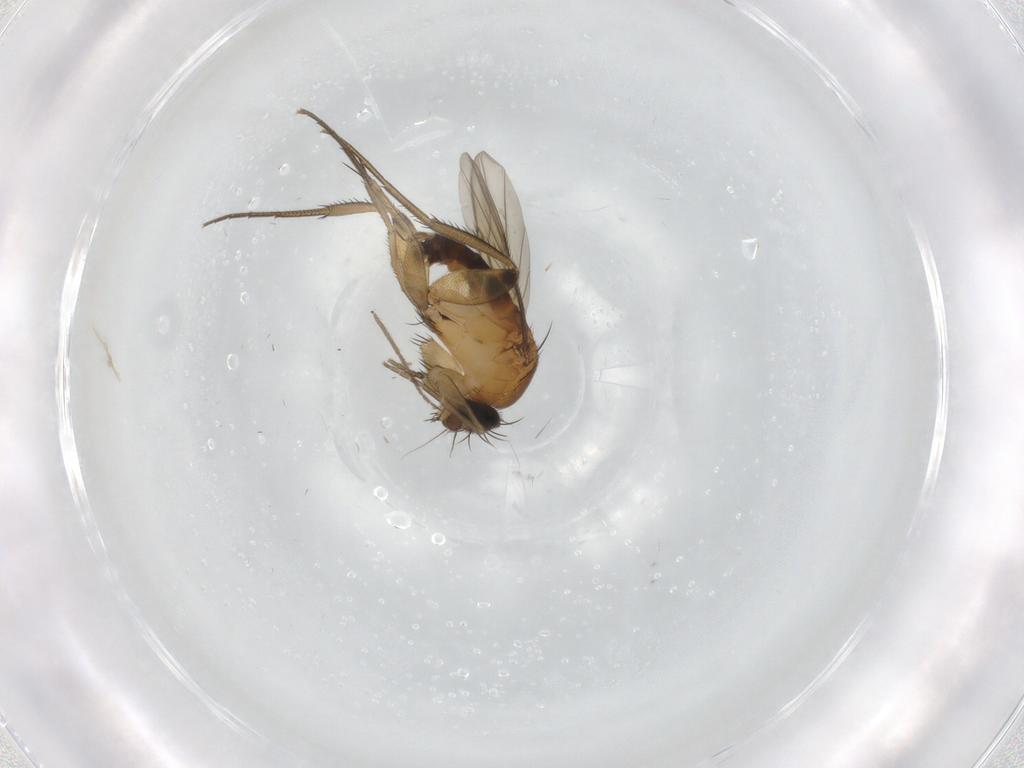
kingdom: Animalia
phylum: Arthropoda
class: Insecta
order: Diptera
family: Phoridae
